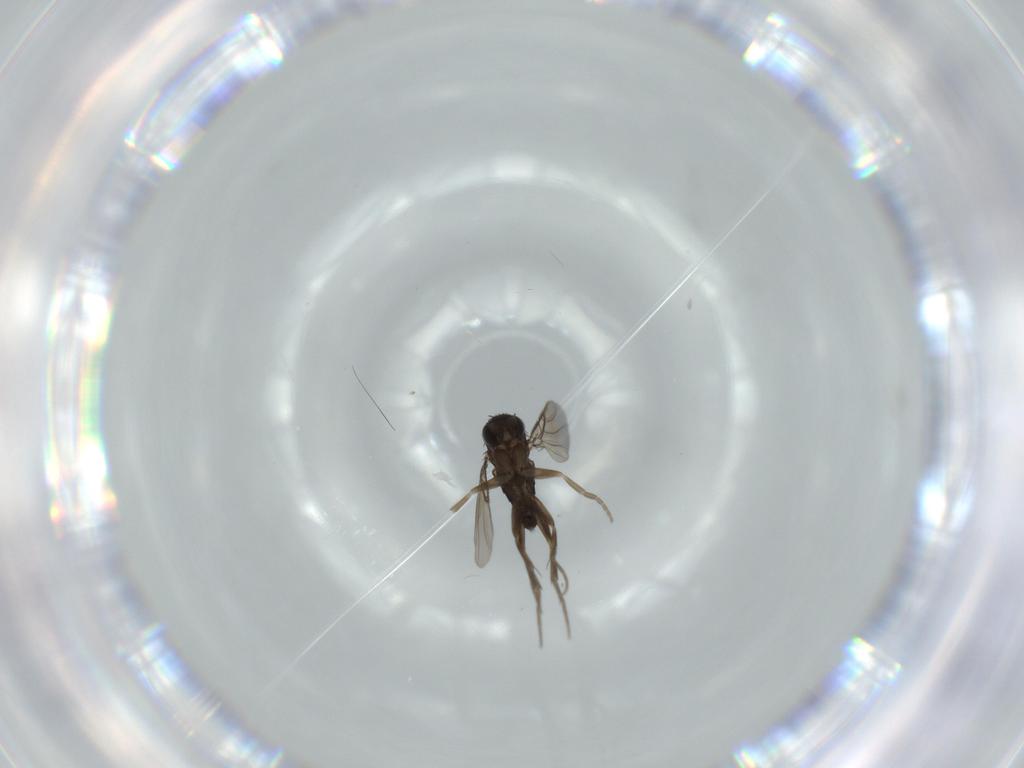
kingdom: Animalia
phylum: Arthropoda
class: Insecta
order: Diptera
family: Phoridae
